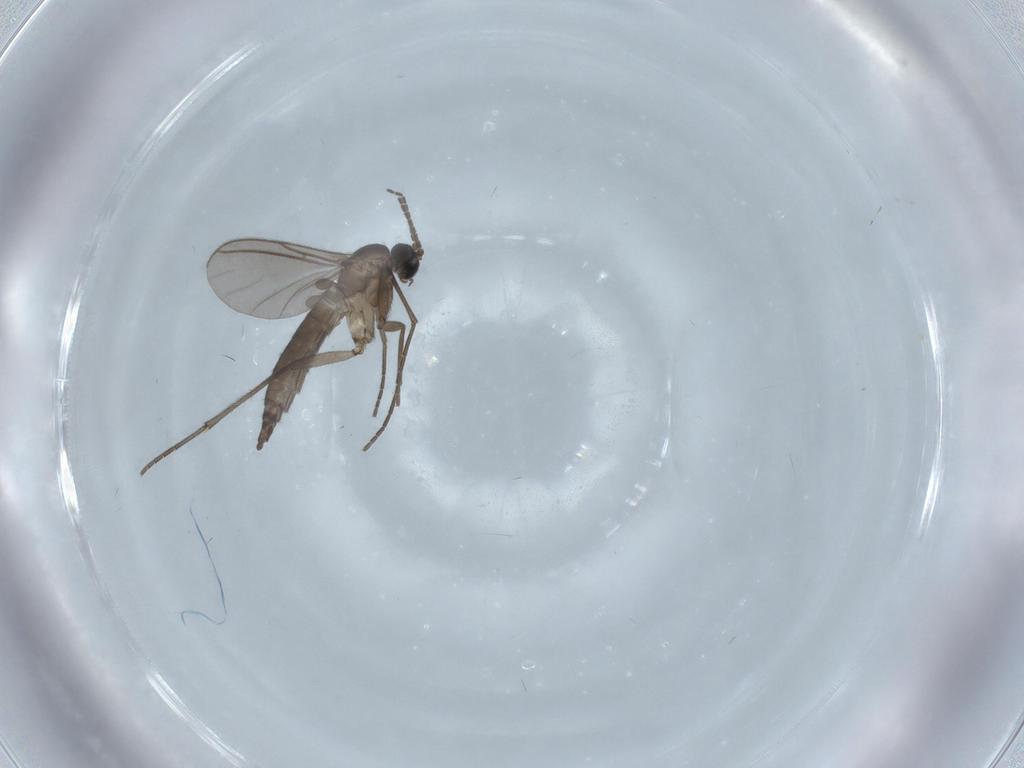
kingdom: Animalia
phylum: Arthropoda
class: Insecta
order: Diptera
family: Sciaridae
